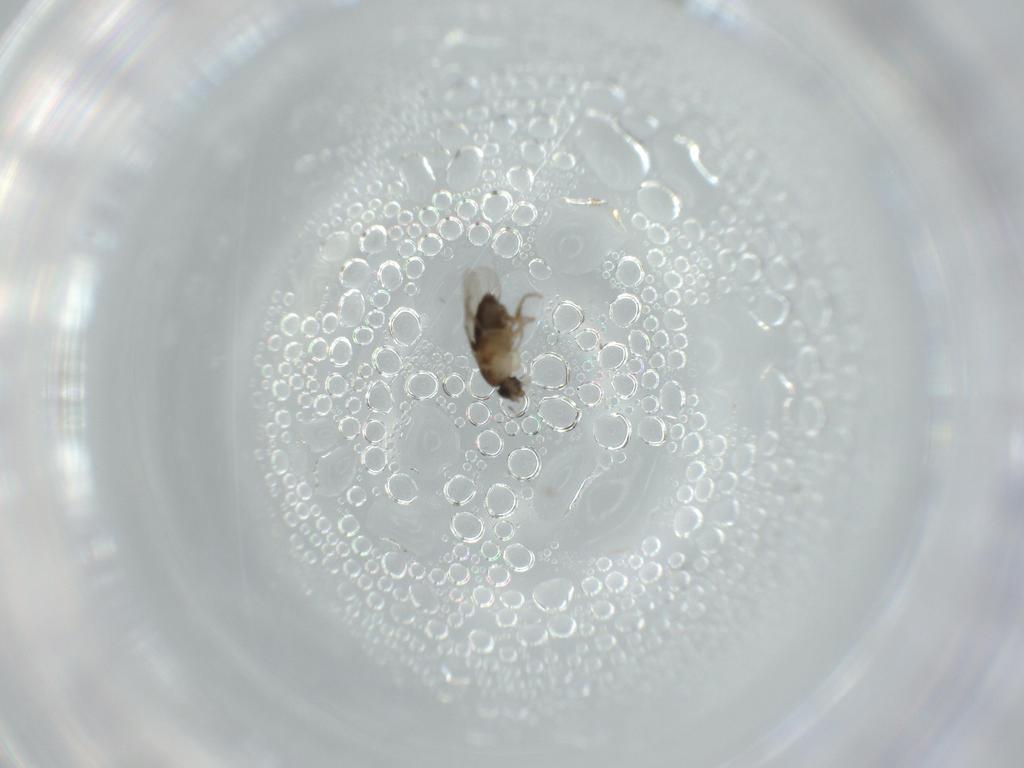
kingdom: Animalia
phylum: Arthropoda
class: Insecta
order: Diptera
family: Phoridae
